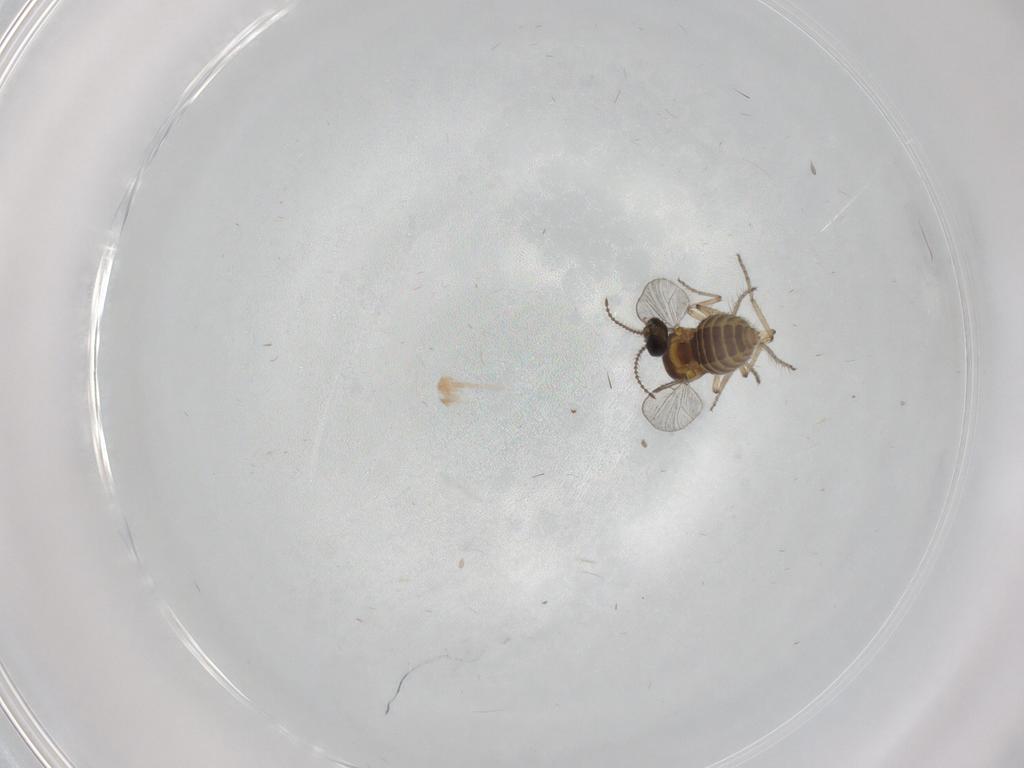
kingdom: Animalia
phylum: Arthropoda
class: Insecta
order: Diptera
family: Ceratopogonidae
